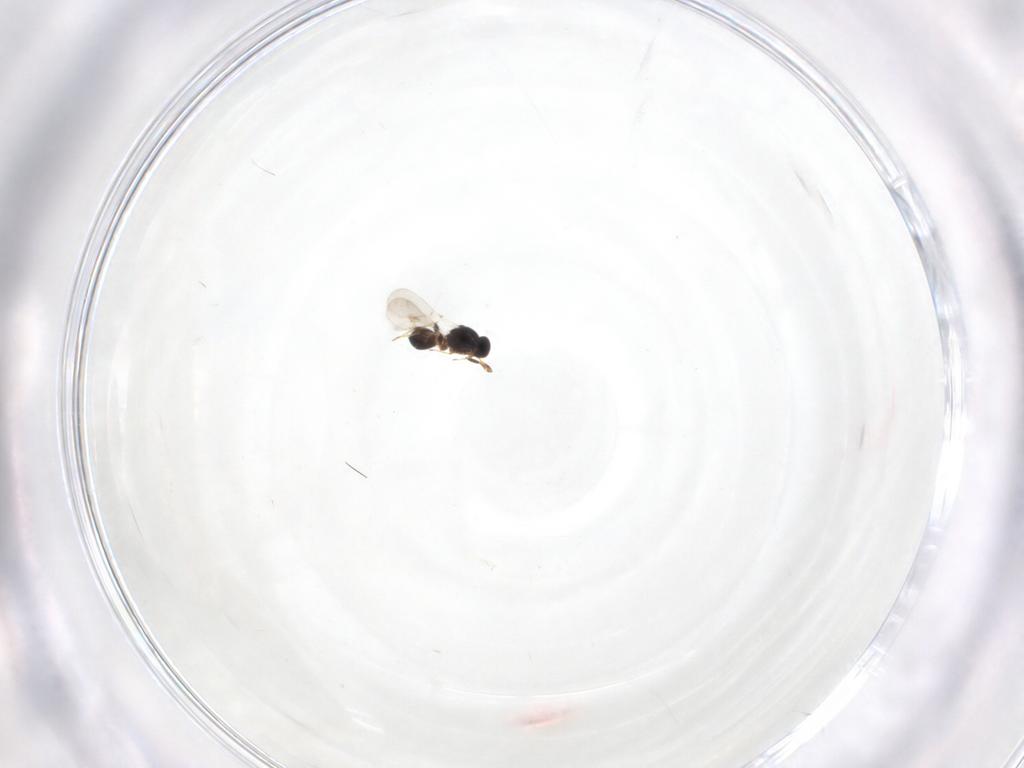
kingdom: Animalia
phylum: Arthropoda
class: Insecta
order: Hymenoptera
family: Platygastridae
